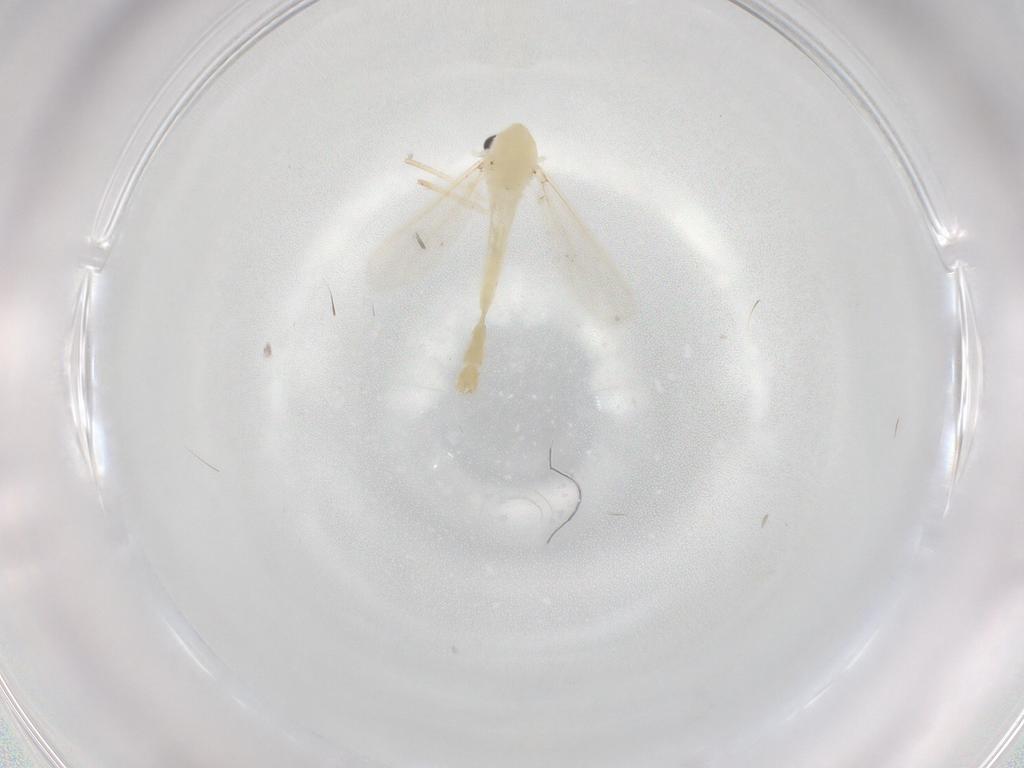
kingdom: Animalia
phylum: Arthropoda
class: Insecta
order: Diptera
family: Chironomidae
